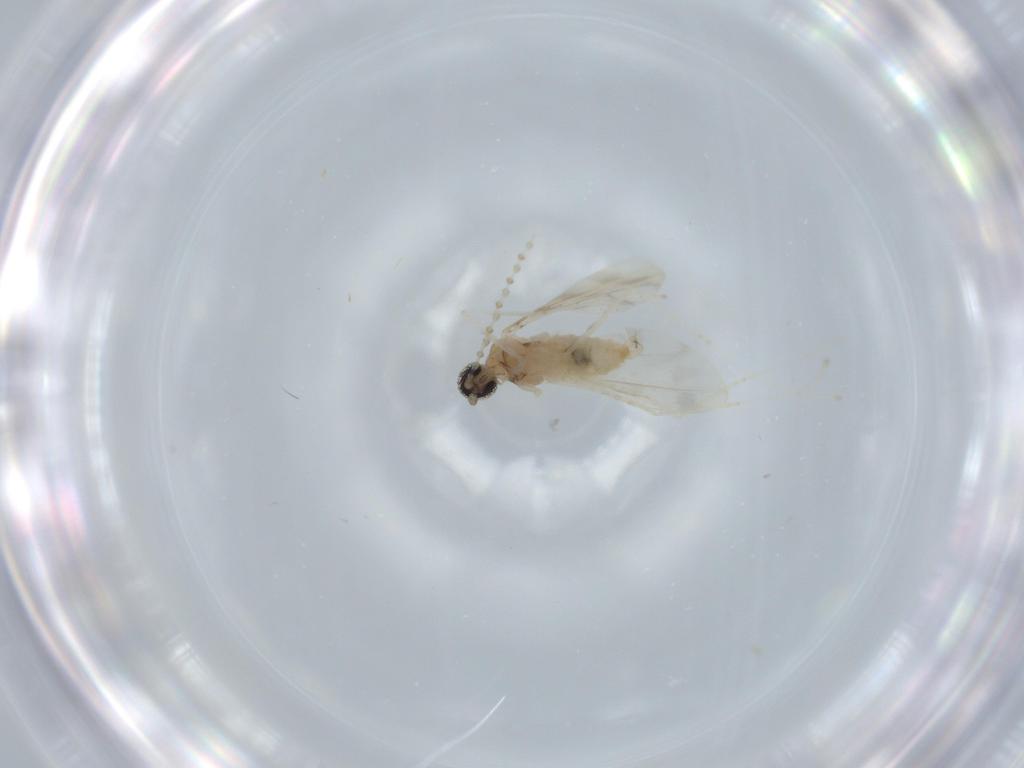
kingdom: Animalia
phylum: Arthropoda
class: Insecta
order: Diptera
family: Cecidomyiidae
